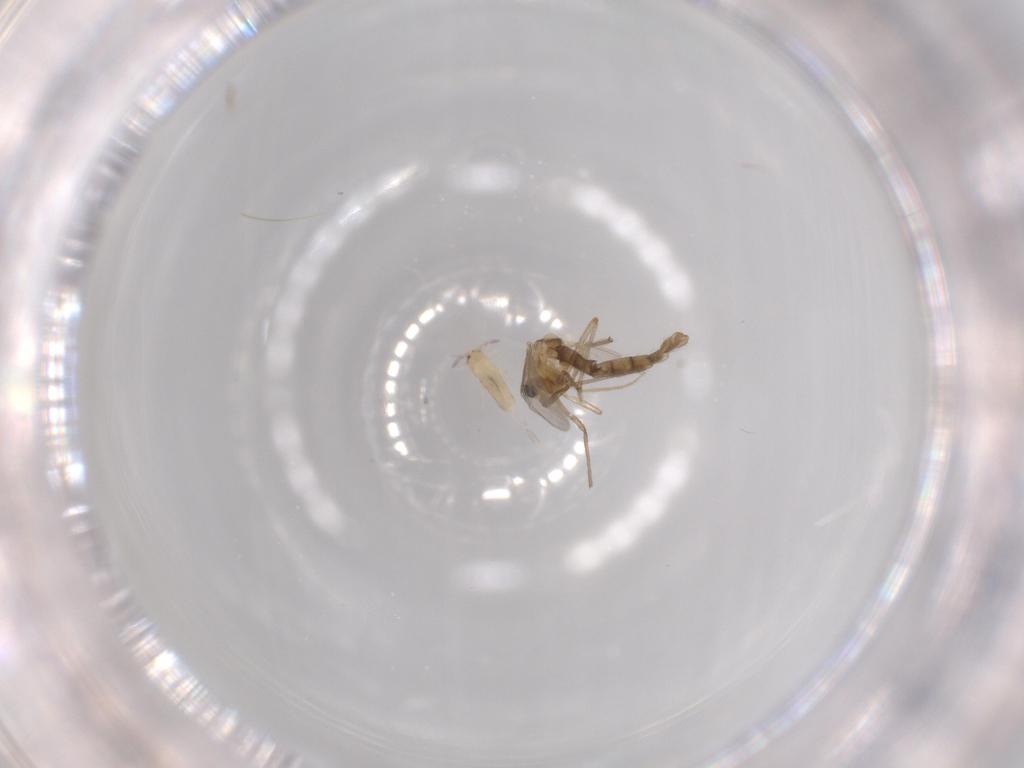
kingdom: Animalia
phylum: Arthropoda
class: Insecta
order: Diptera
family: Chironomidae
